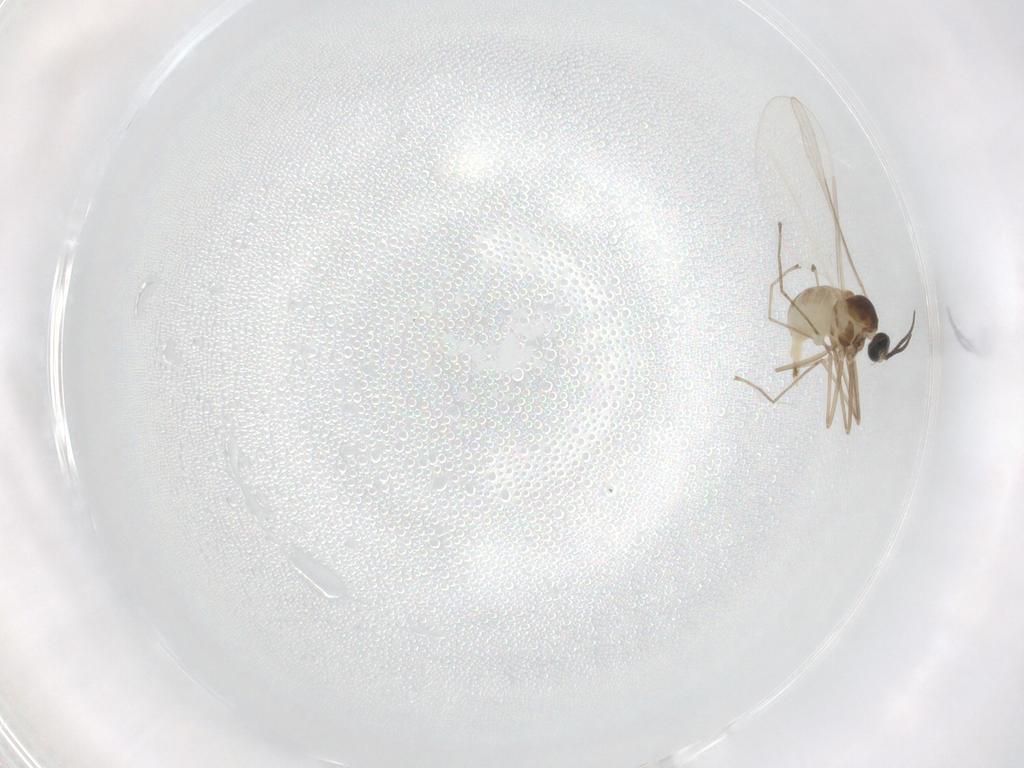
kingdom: Animalia
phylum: Arthropoda
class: Insecta
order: Diptera
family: Cecidomyiidae
